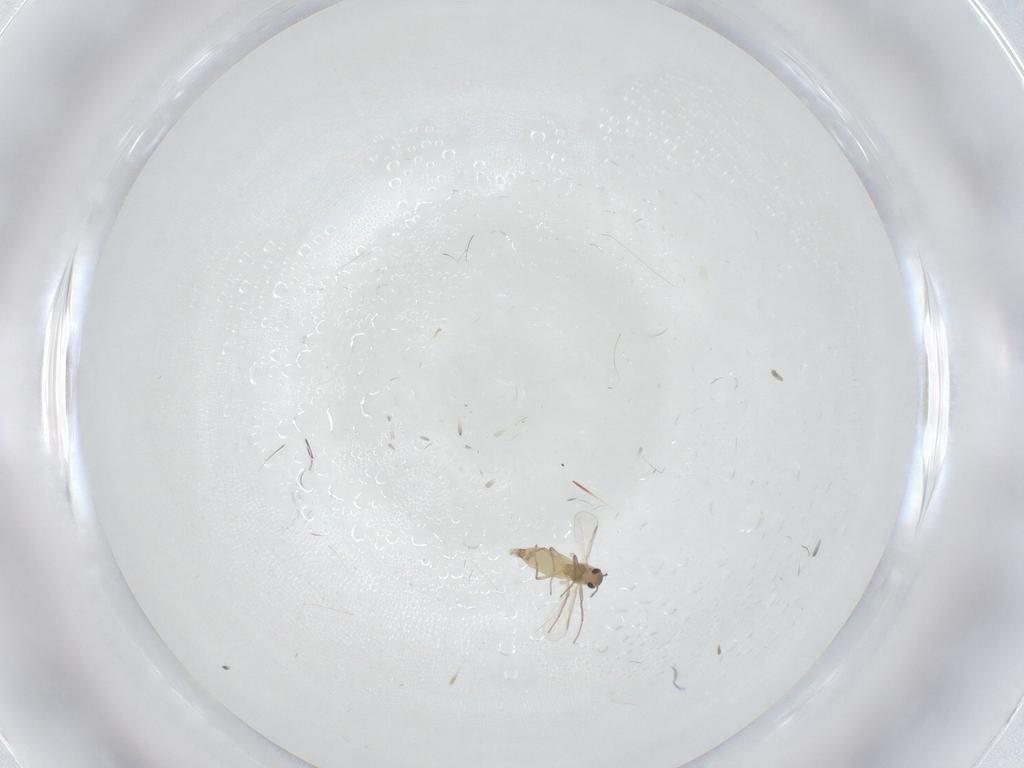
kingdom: Animalia
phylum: Arthropoda
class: Insecta
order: Diptera
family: Chironomidae
